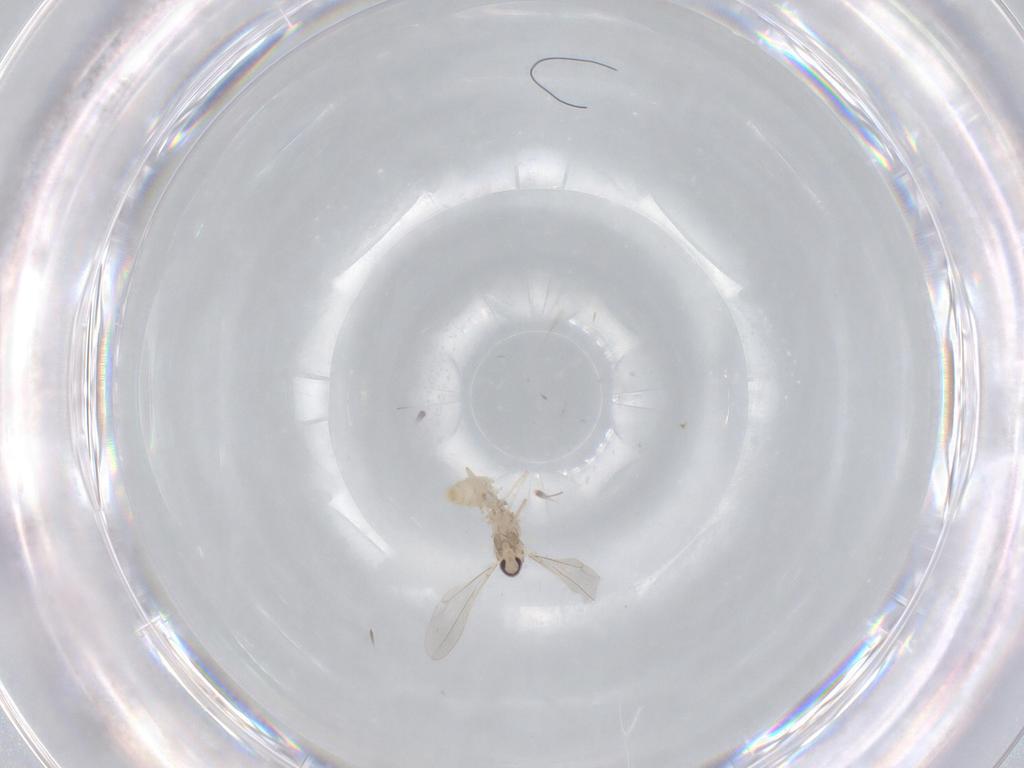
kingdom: Animalia
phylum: Arthropoda
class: Insecta
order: Diptera
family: Cecidomyiidae
